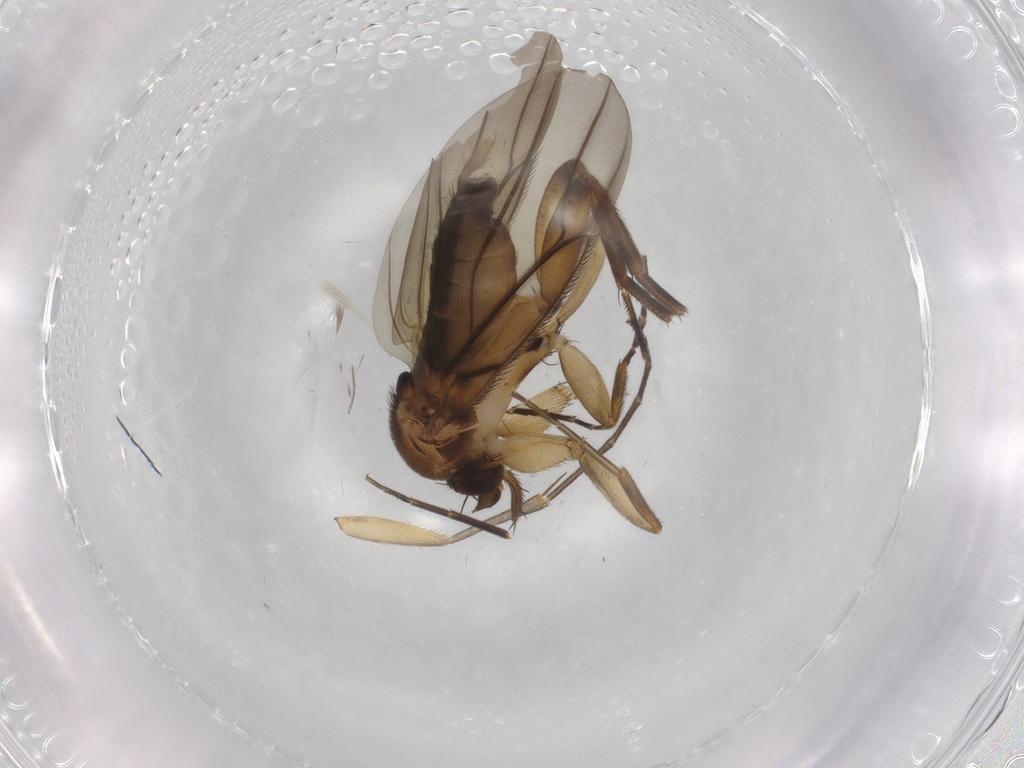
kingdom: Animalia
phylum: Arthropoda
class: Insecta
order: Diptera
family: Phoridae
